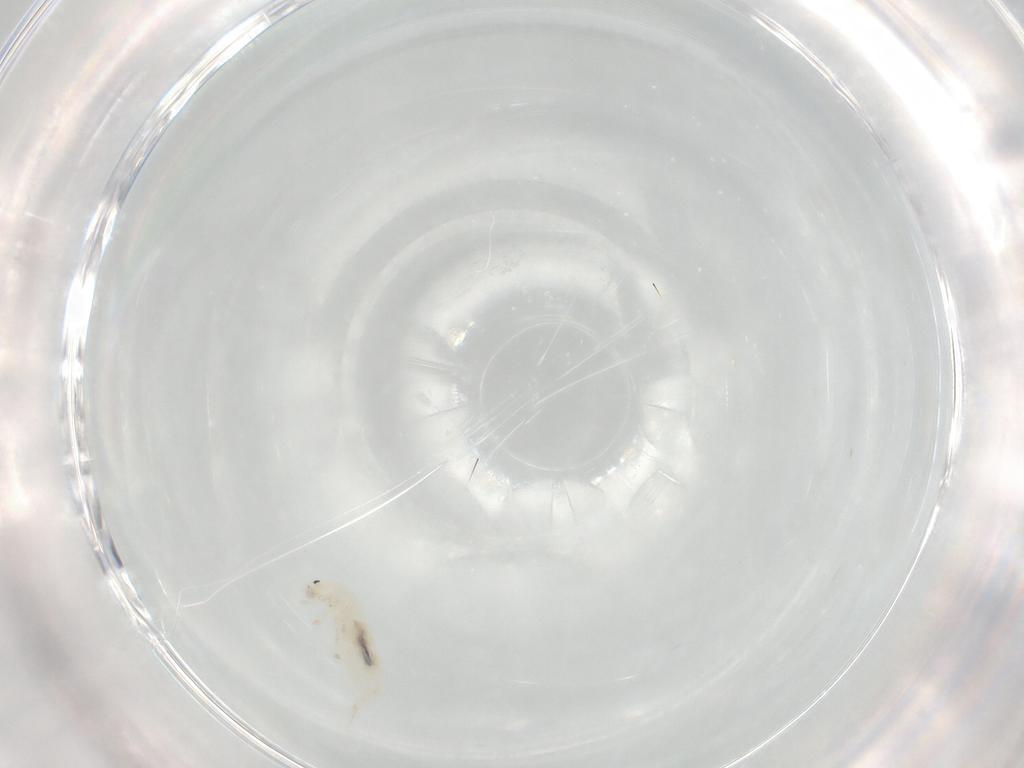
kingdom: Animalia
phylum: Arthropoda
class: Collembola
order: Entomobryomorpha
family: Entomobryidae
